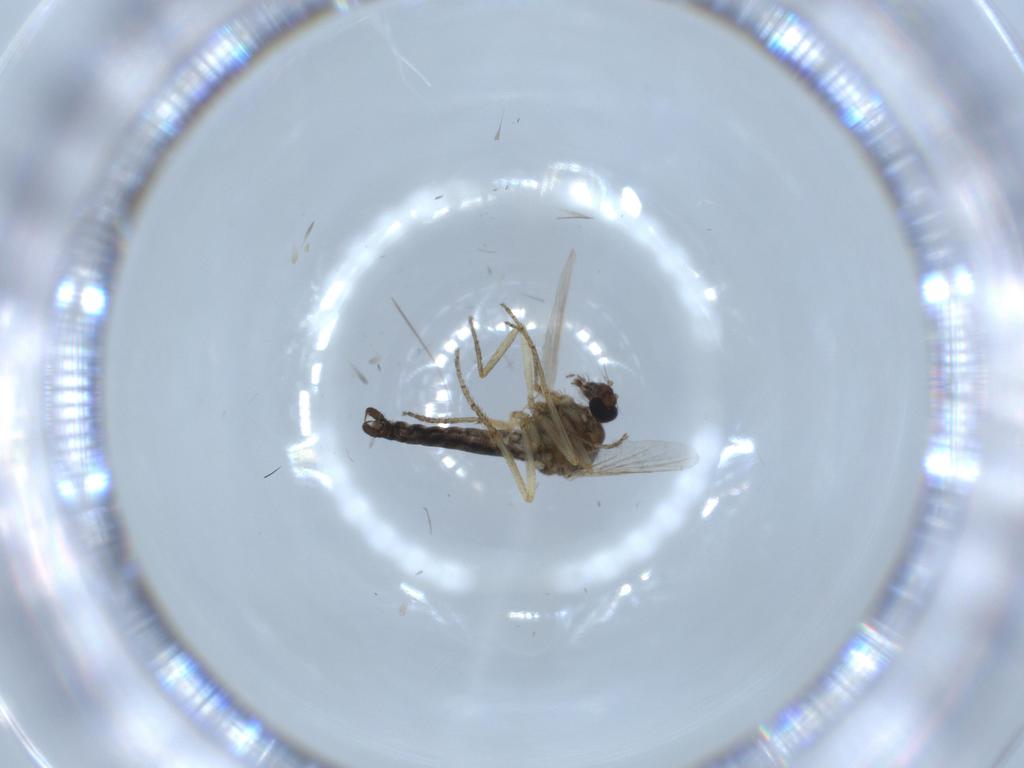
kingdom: Animalia
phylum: Arthropoda
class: Insecta
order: Diptera
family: Ceratopogonidae
